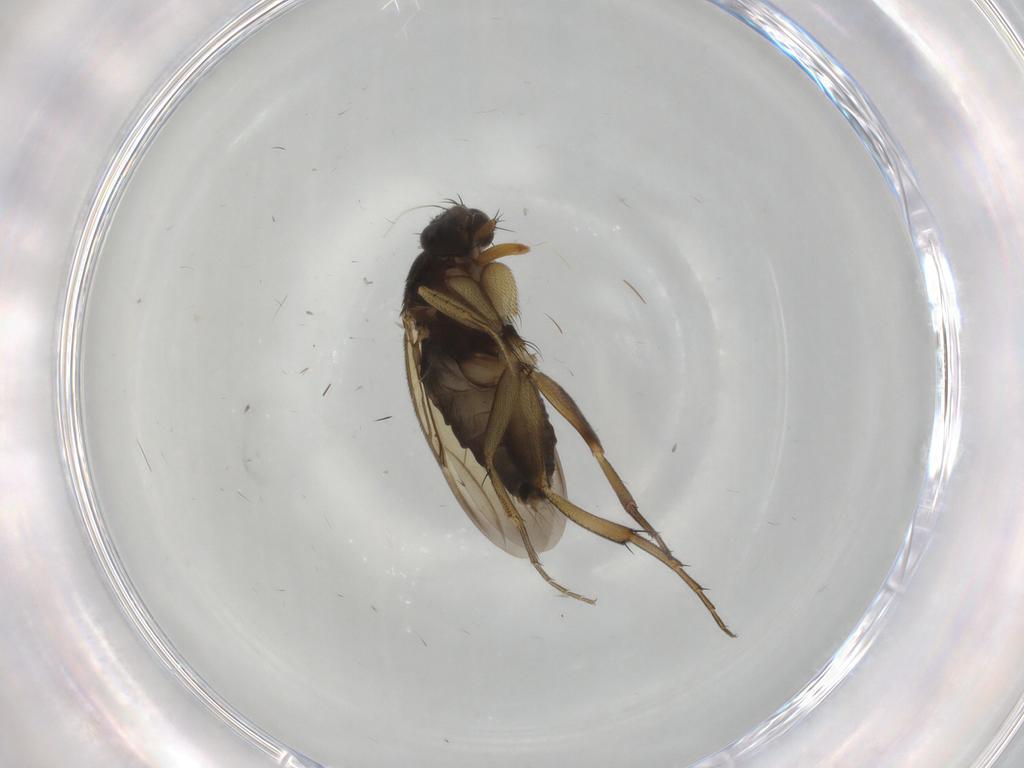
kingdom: Animalia
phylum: Arthropoda
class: Insecta
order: Diptera
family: Phoridae
